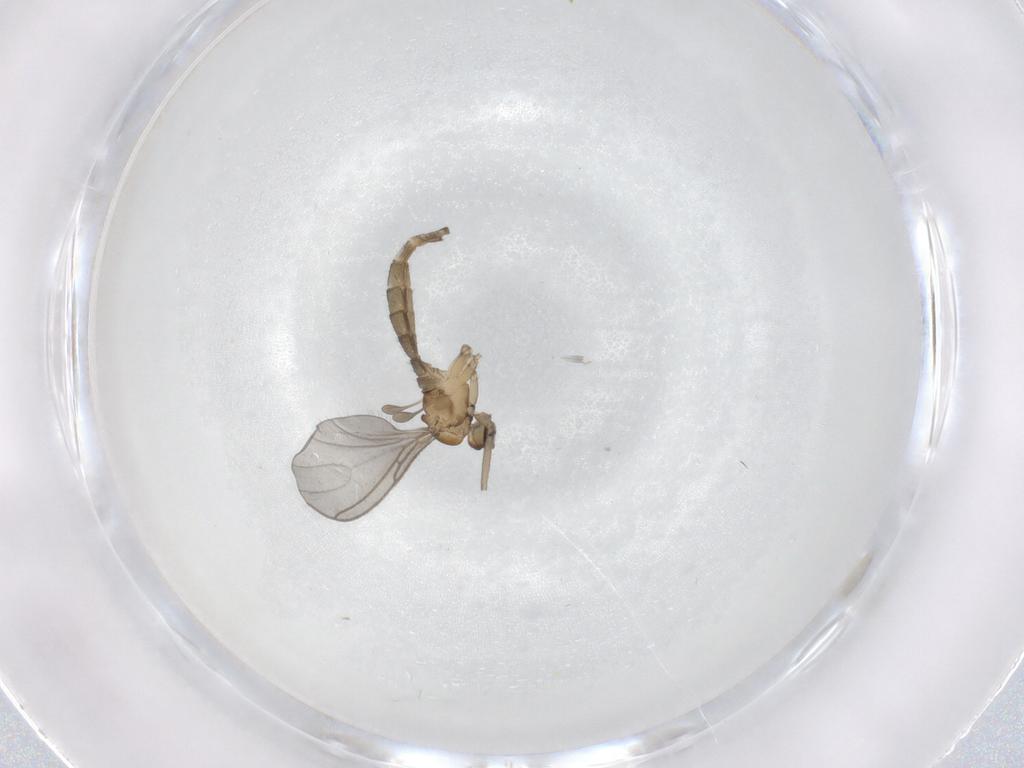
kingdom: Animalia
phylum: Arthropoda
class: Insecta
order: Diptera
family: Sciaridae
